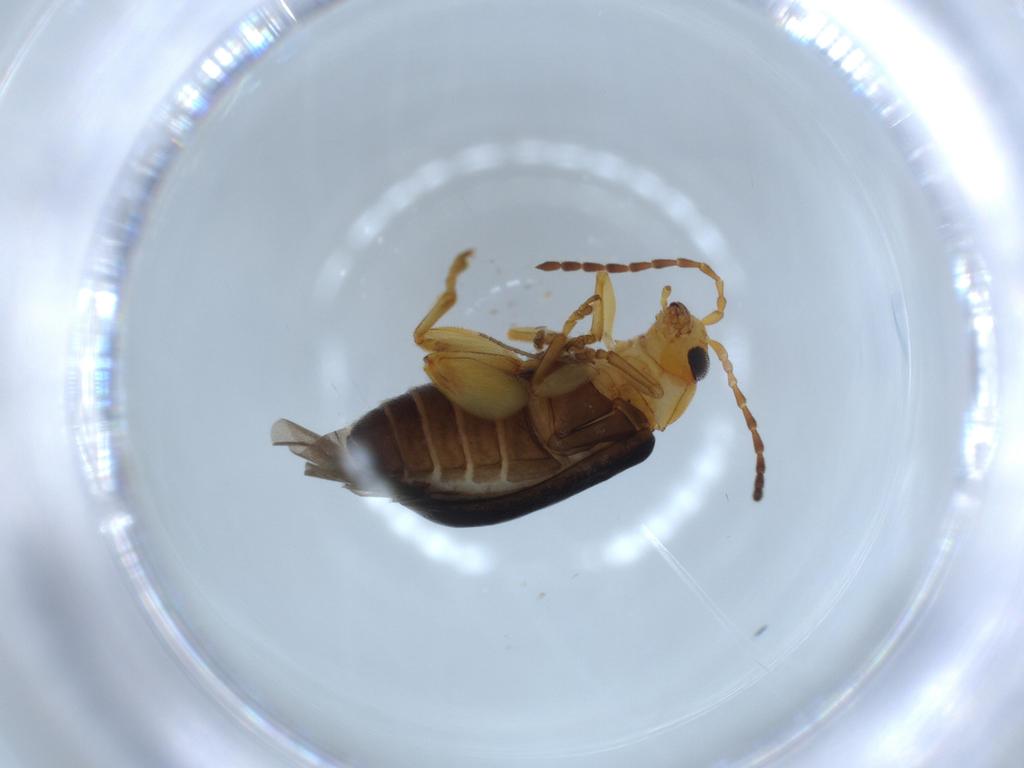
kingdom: Animalia
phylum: Arthropoda
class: Insecta
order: Coleoptera
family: Chrysomelidae
